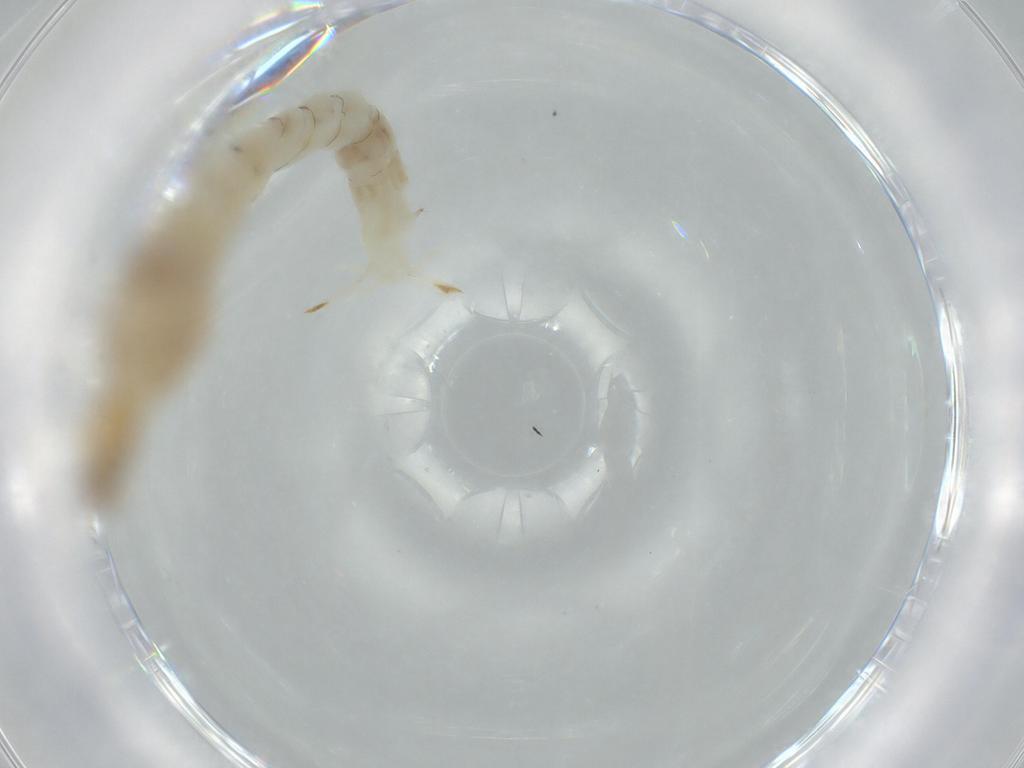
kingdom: Animalia
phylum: Arthropoda
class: Insecta
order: Diptera
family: Chironomidae
